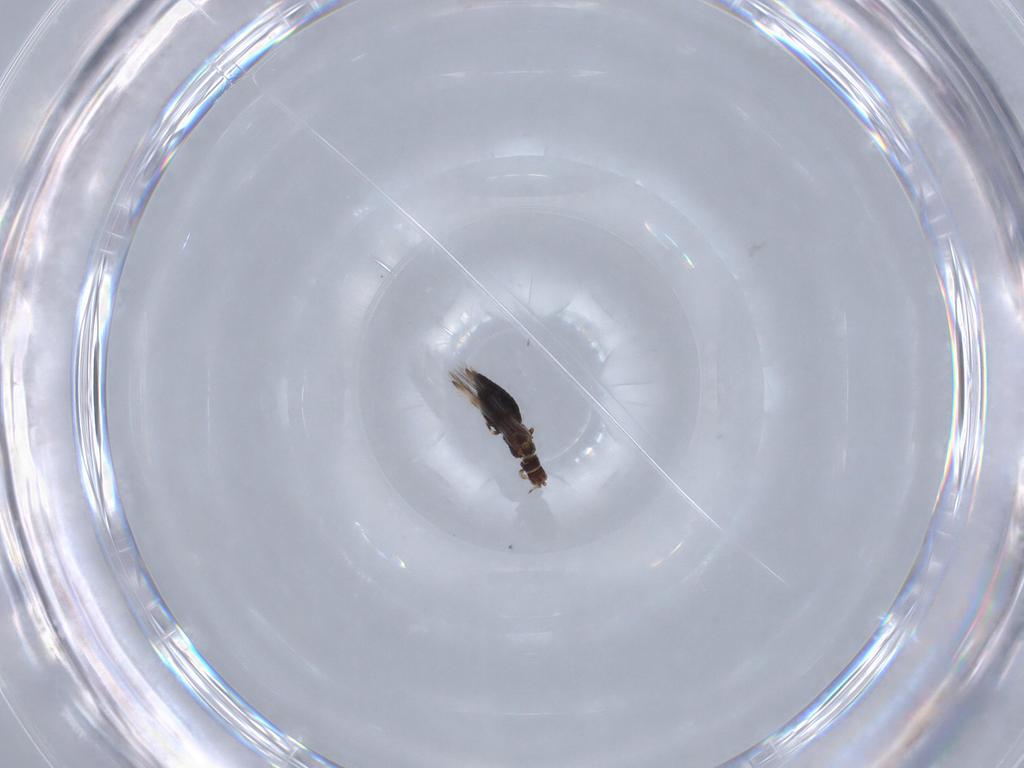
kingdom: Animalia
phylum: Arthropoda
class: Insecta
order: Thysanoptera
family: Thripidae
